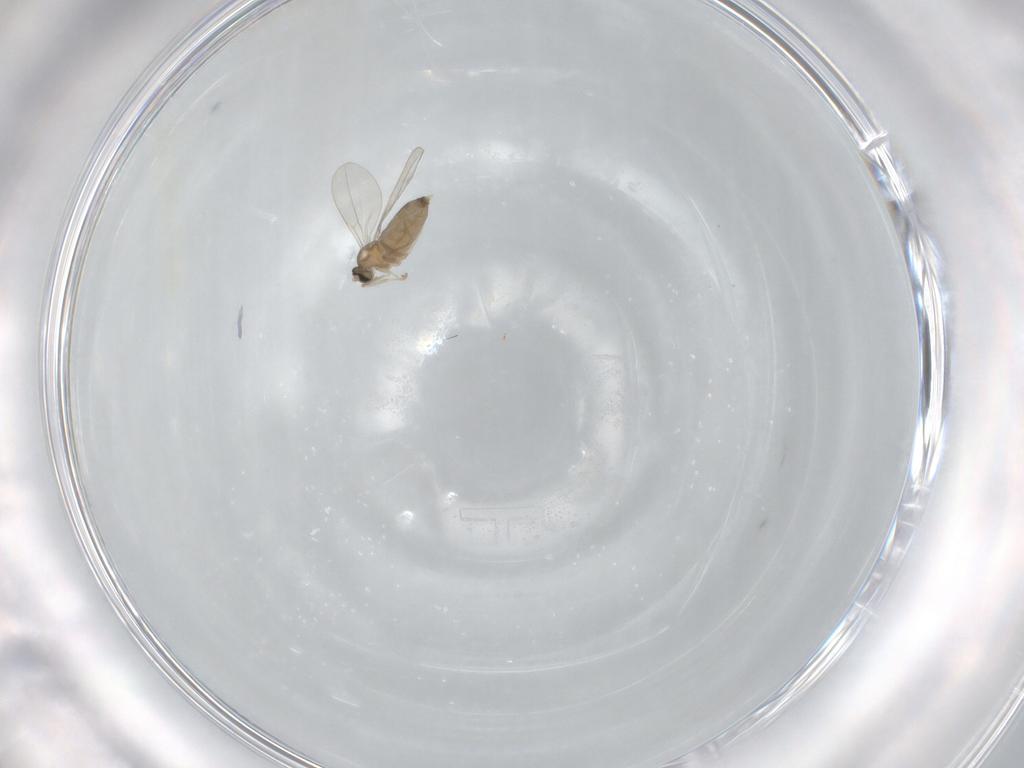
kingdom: Animalia
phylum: Arthropoda
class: Insecta
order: Diptera
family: Cecidomyiidae
